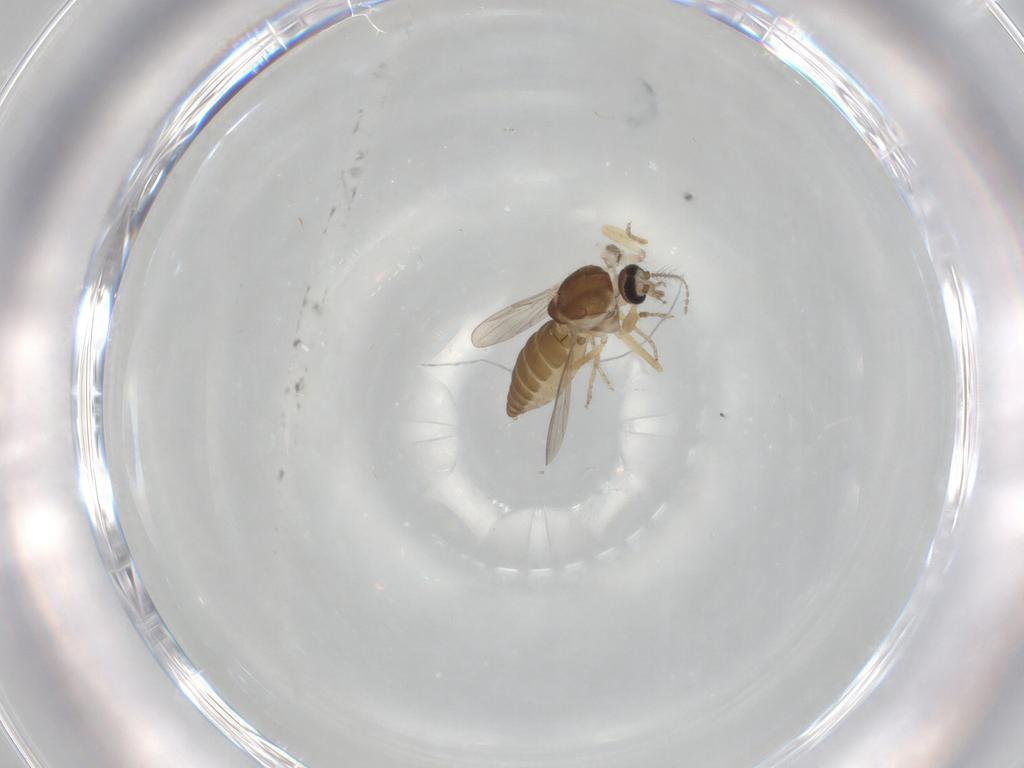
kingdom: Animalia
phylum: Arthropoda
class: Insecta
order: Diptera
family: Ceratopogonidae
